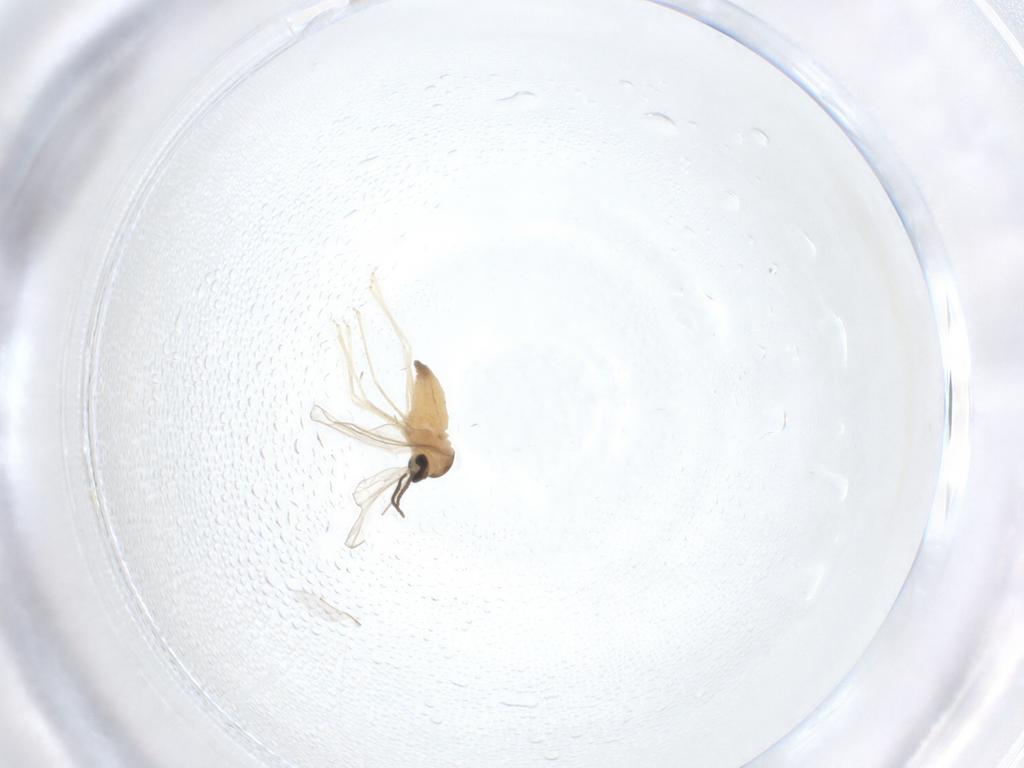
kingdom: Animalia
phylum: Arthropoda
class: Insecta
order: Diptera
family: Cecidomyiidae
